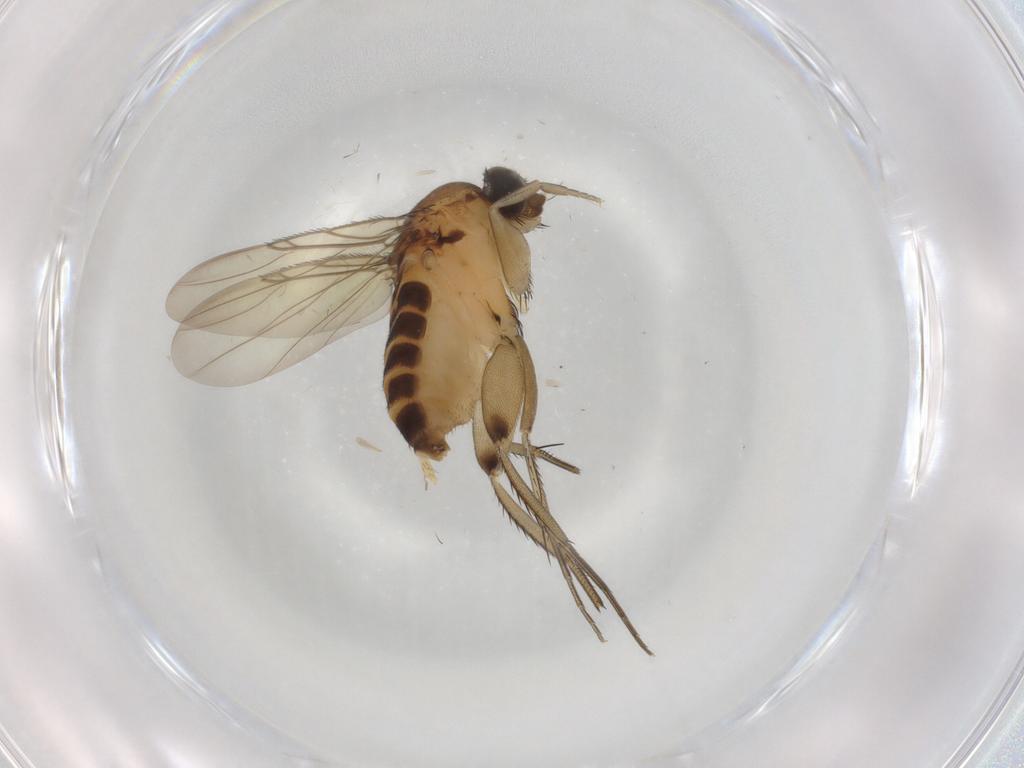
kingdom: Animalia
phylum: Arthropoda
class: Insecta
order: Diptera
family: Phoridae
